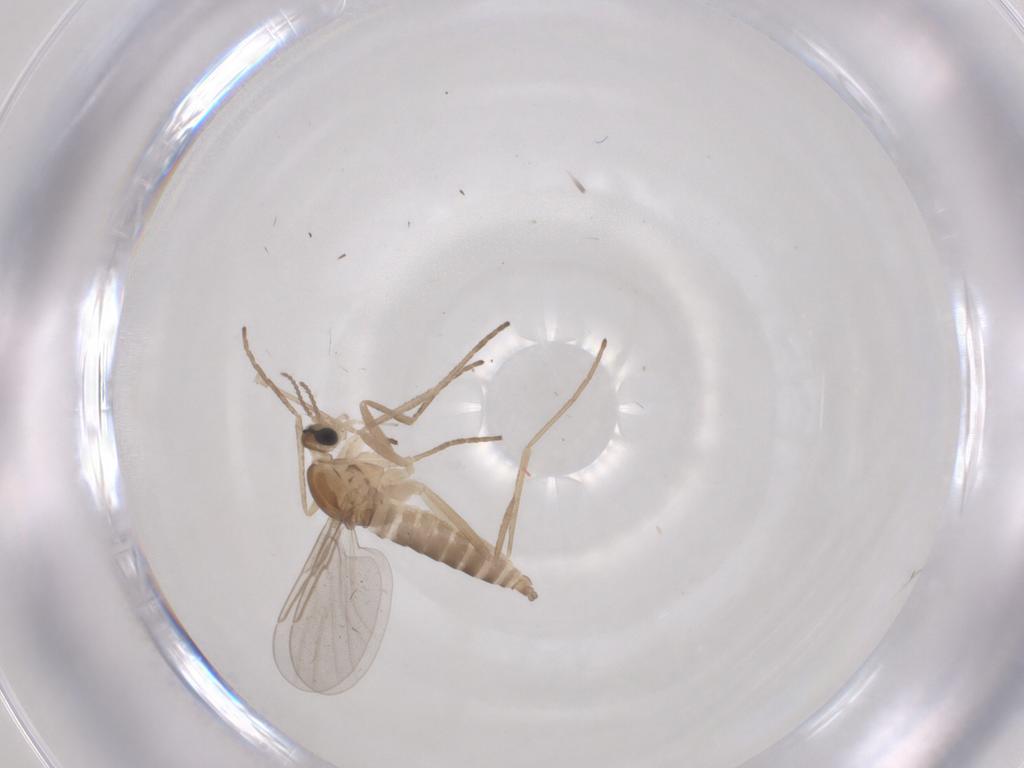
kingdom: Animalia
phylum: Arthropoda
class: Insecta
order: Diptera
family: Cecidomyiidae
